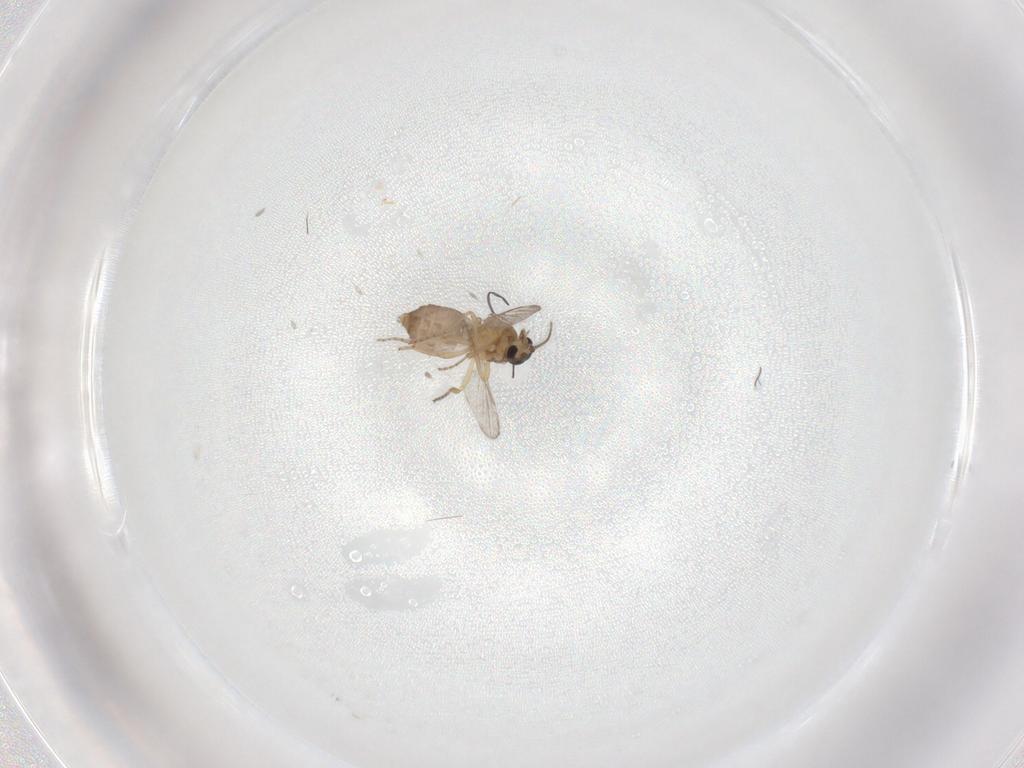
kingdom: Animalia
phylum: Arthropoda
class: Insecta
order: Diptera
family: Ceratopogonidae
